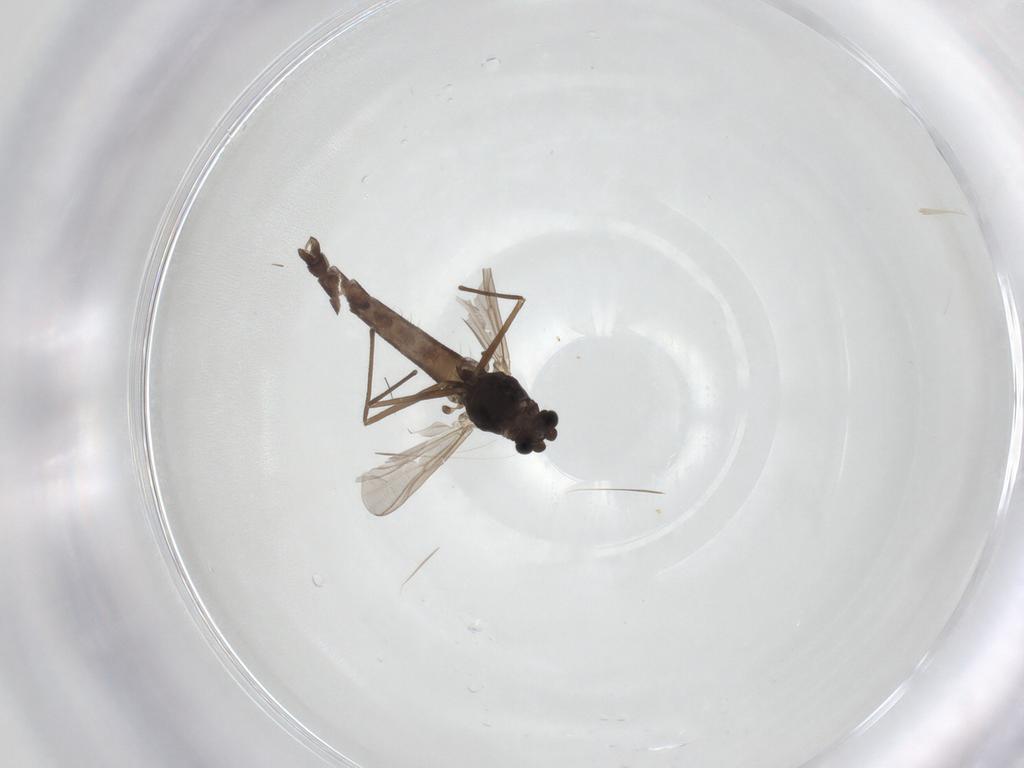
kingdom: Animalia
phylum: Arthropoda
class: Insecta
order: Diptera
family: Chironomidae
